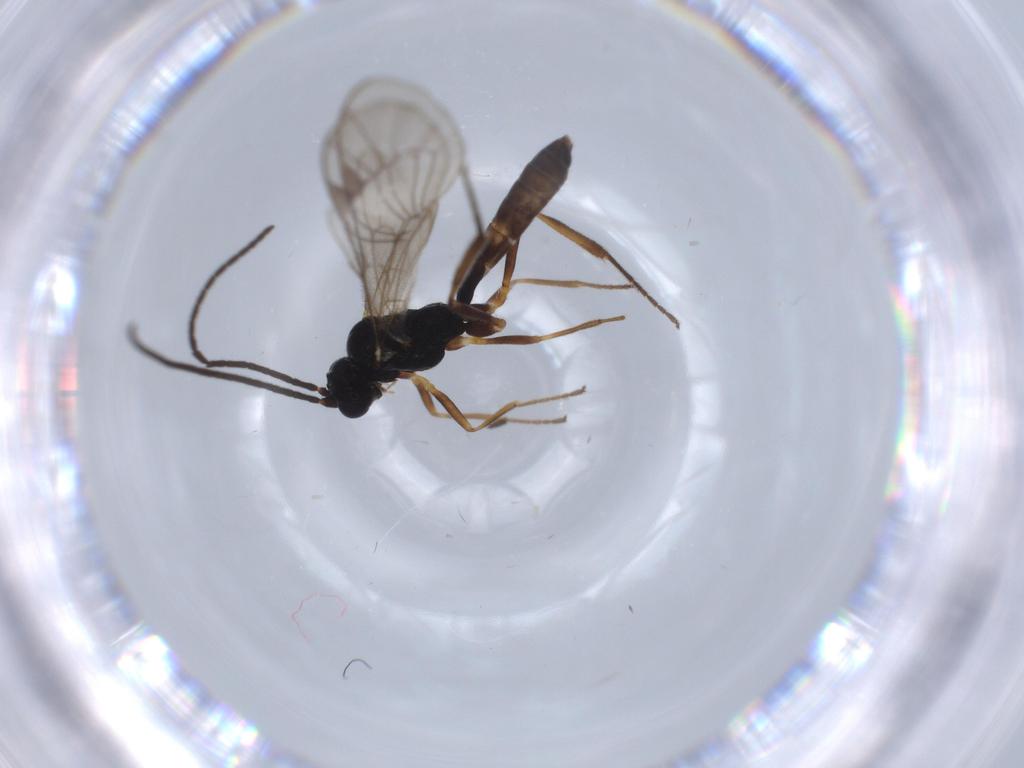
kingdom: Animalia
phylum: Arthropoda
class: Insecta
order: Hymenoptera
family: Mymaridae
